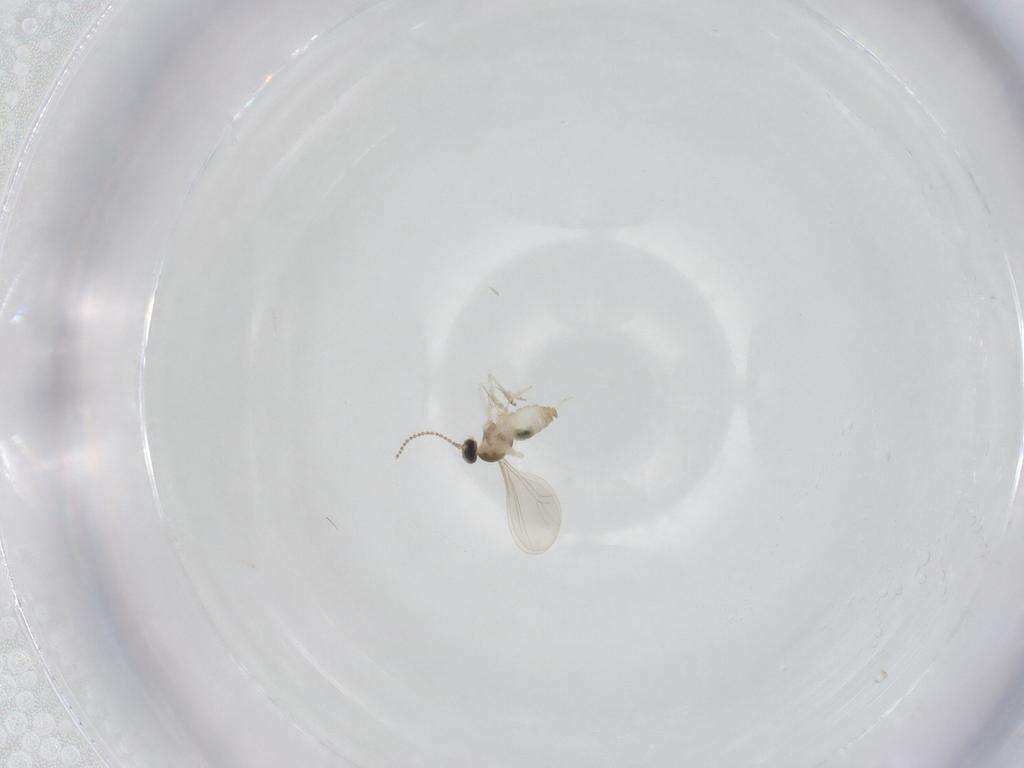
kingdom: Animalia
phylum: Arthropoda
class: Insecta
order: Diptera
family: Cecidomyiidae
